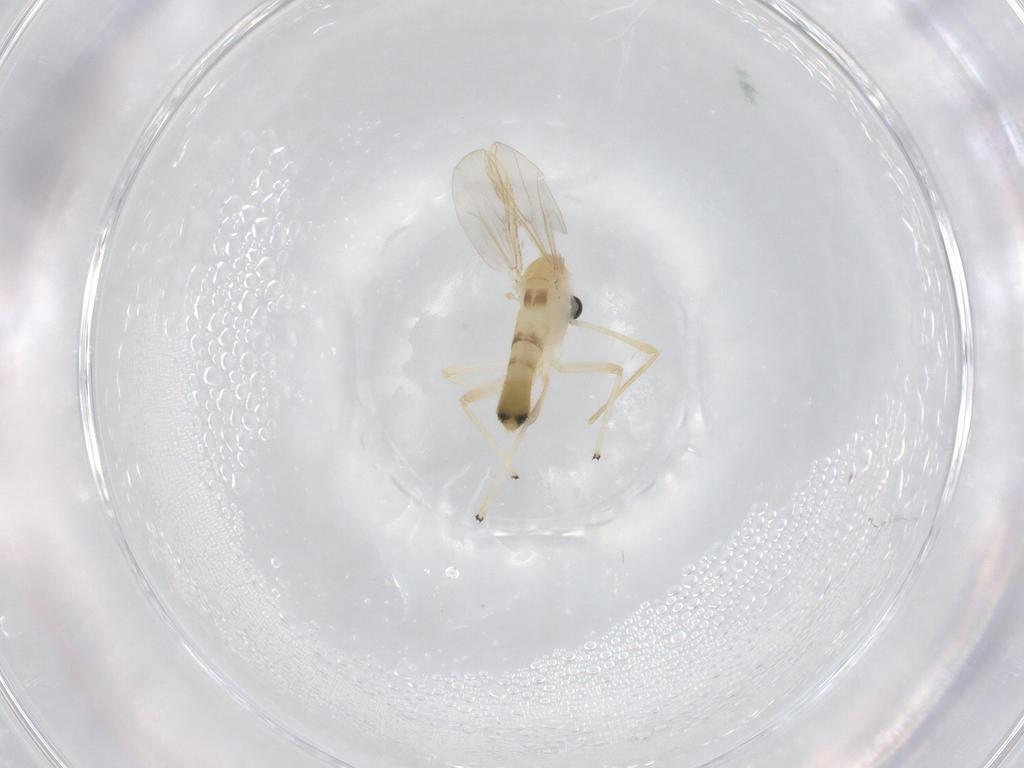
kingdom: Animalia
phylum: Arthropoda
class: Insecta
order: Diptera
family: Chironomidae
